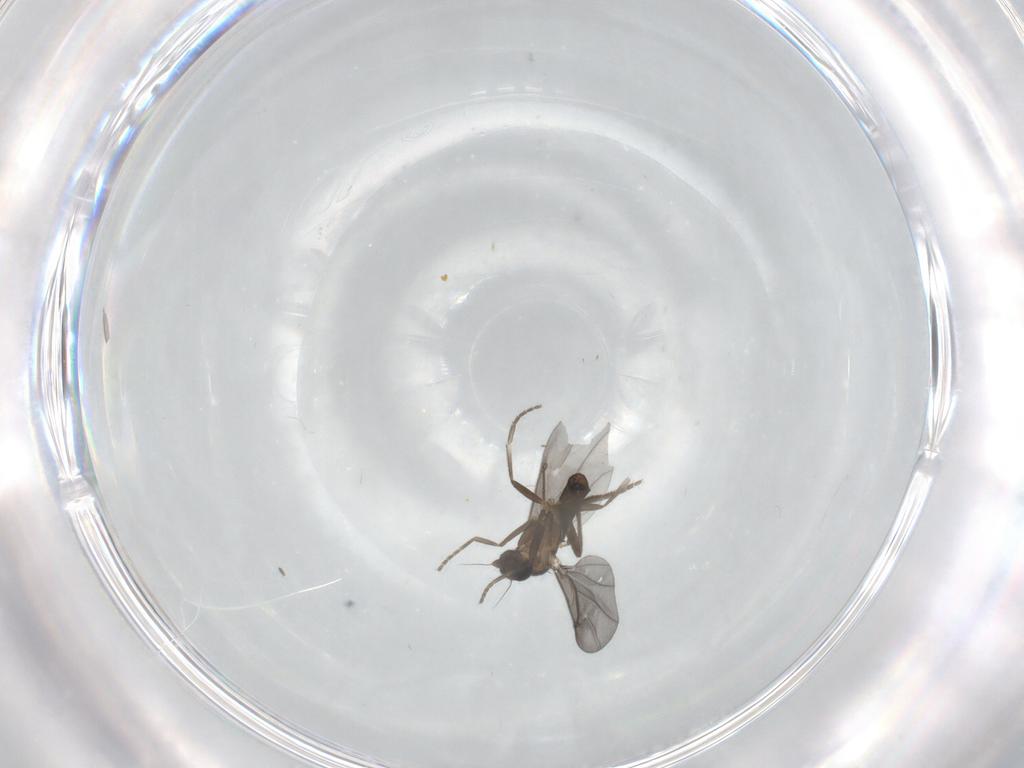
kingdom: Animalia
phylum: Arthropoda
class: Insecta
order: Diptera
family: Phoridae
